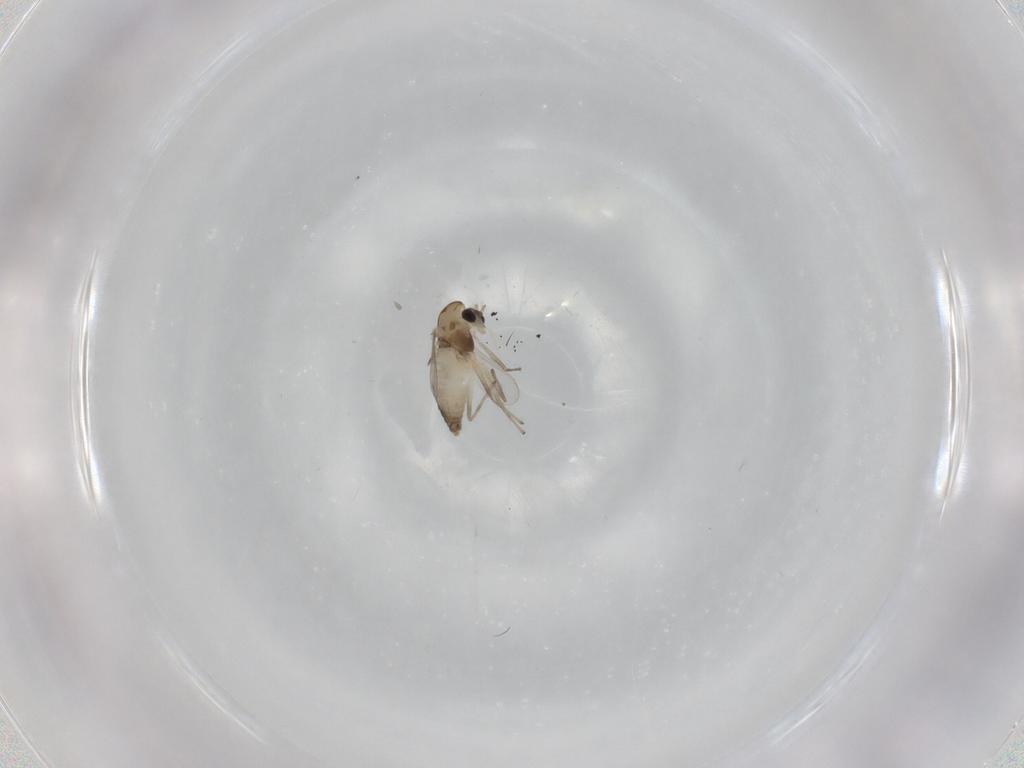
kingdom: Animalia
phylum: Arthropoda
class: Insecta
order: Diptera
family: Chironomidae
